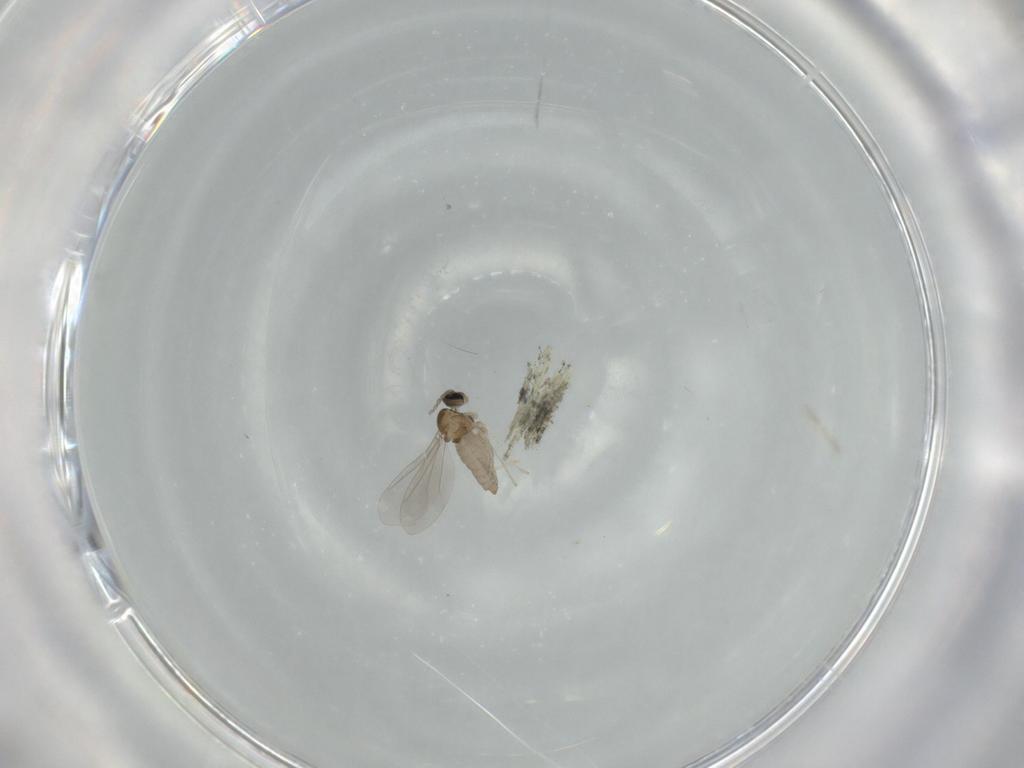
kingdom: Animalia
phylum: Arthropoda
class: Insecta
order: Diptera
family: Cecidomyiidae
